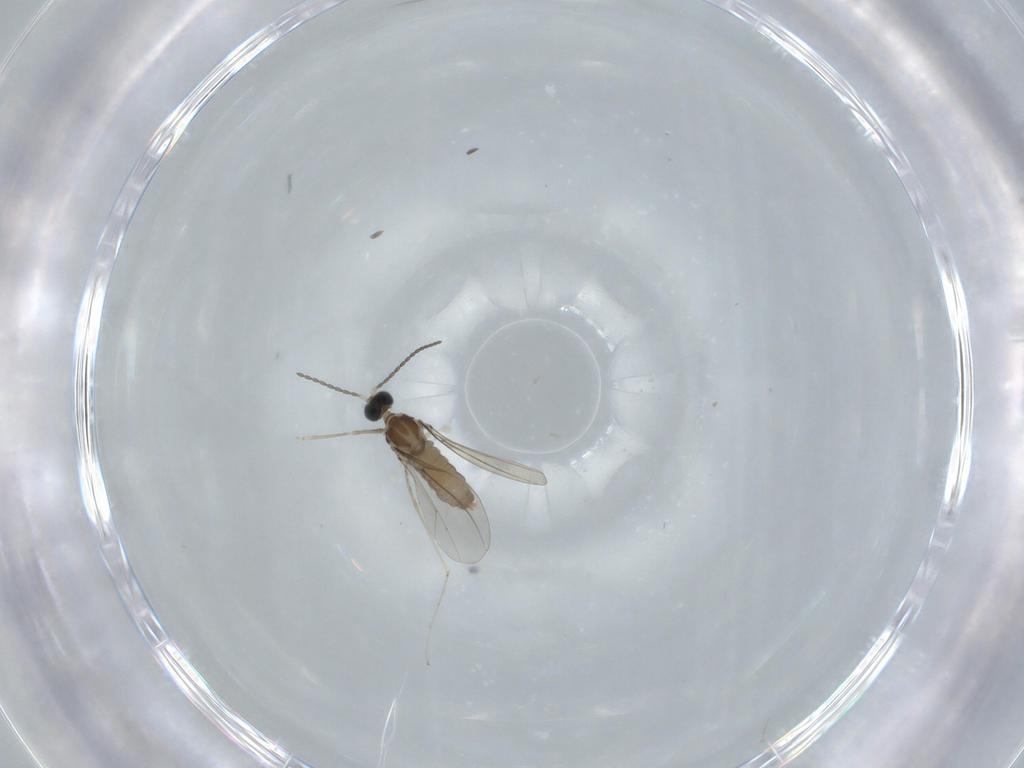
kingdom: Animalia
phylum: Arthropoda
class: Insecta
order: Diptera
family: Cecidomyiidae
